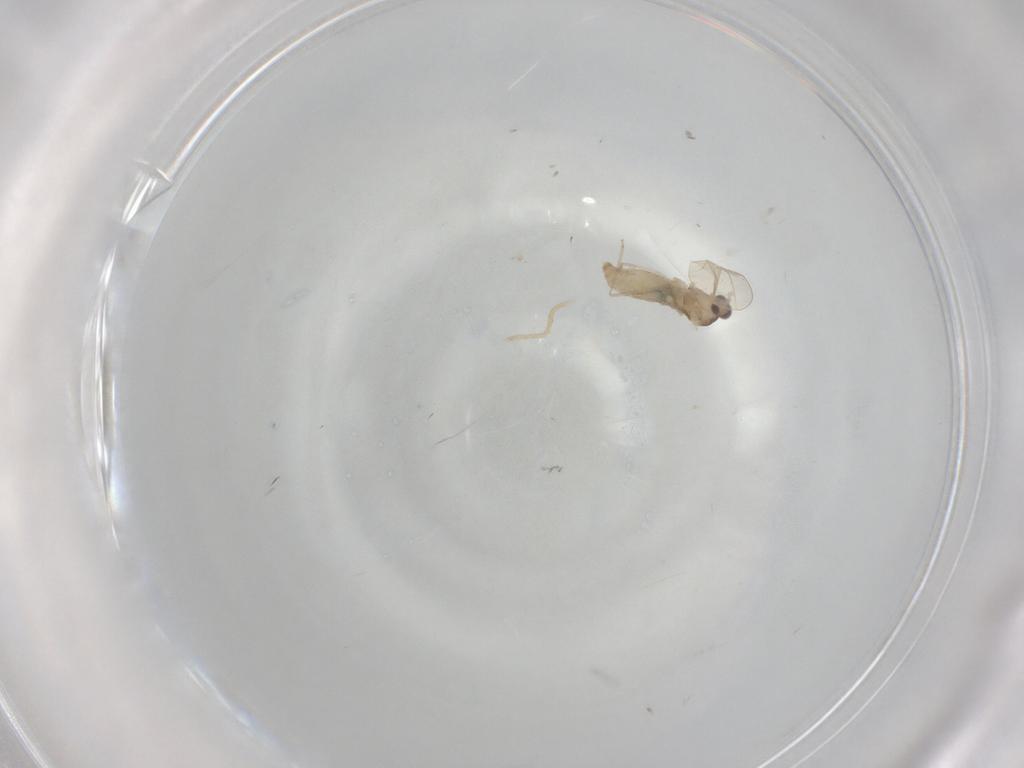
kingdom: Animalia
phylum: Arthropoda
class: Insecta
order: Diptera
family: Cecidomyiidae
